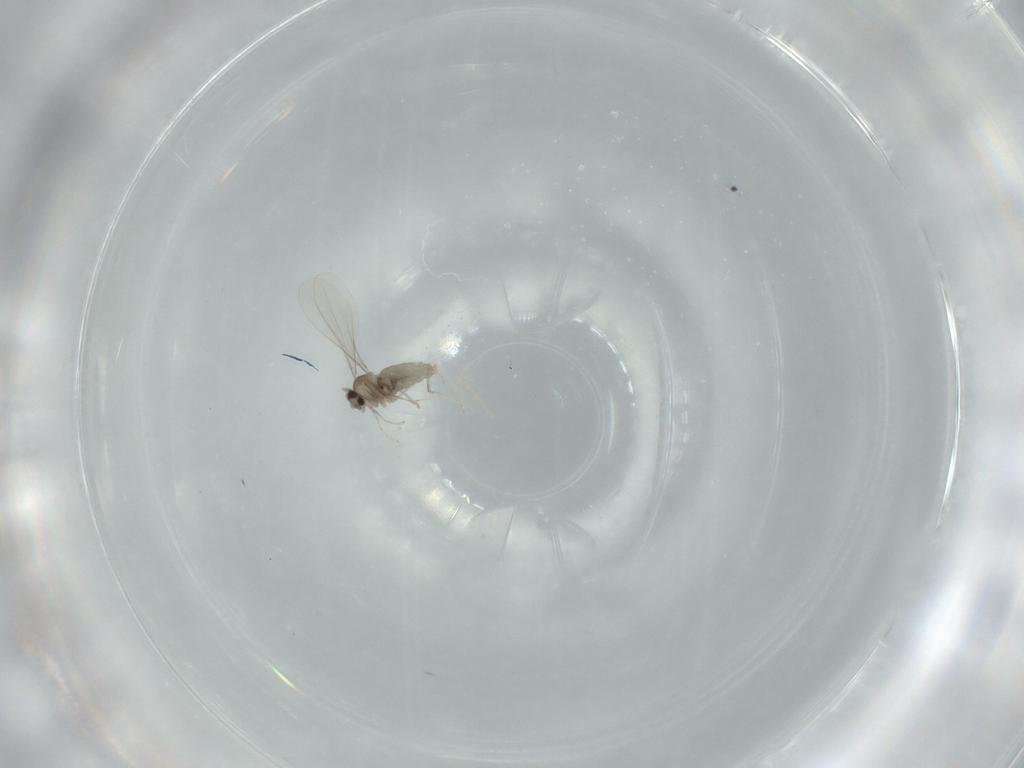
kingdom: Animalia
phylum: Arthropoda
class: Insecta
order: Diptera
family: Cecidomyiidae
